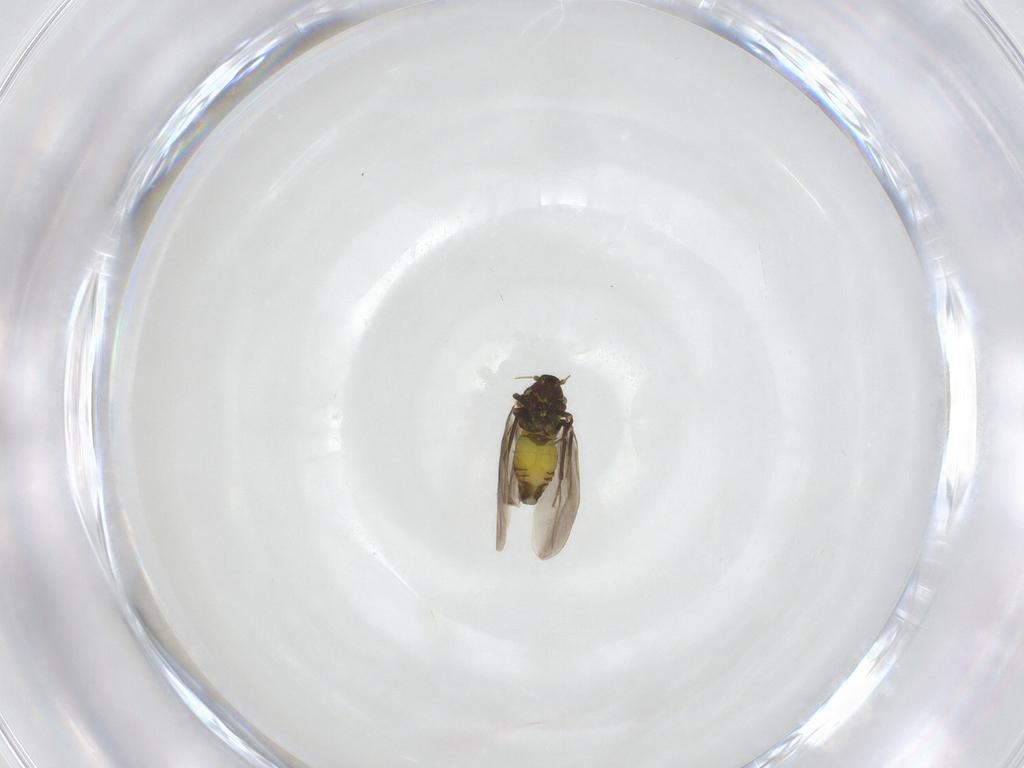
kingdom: Animalia
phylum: Arthropoda
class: Insecta
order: Hemiptera
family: Aleyrodidae
